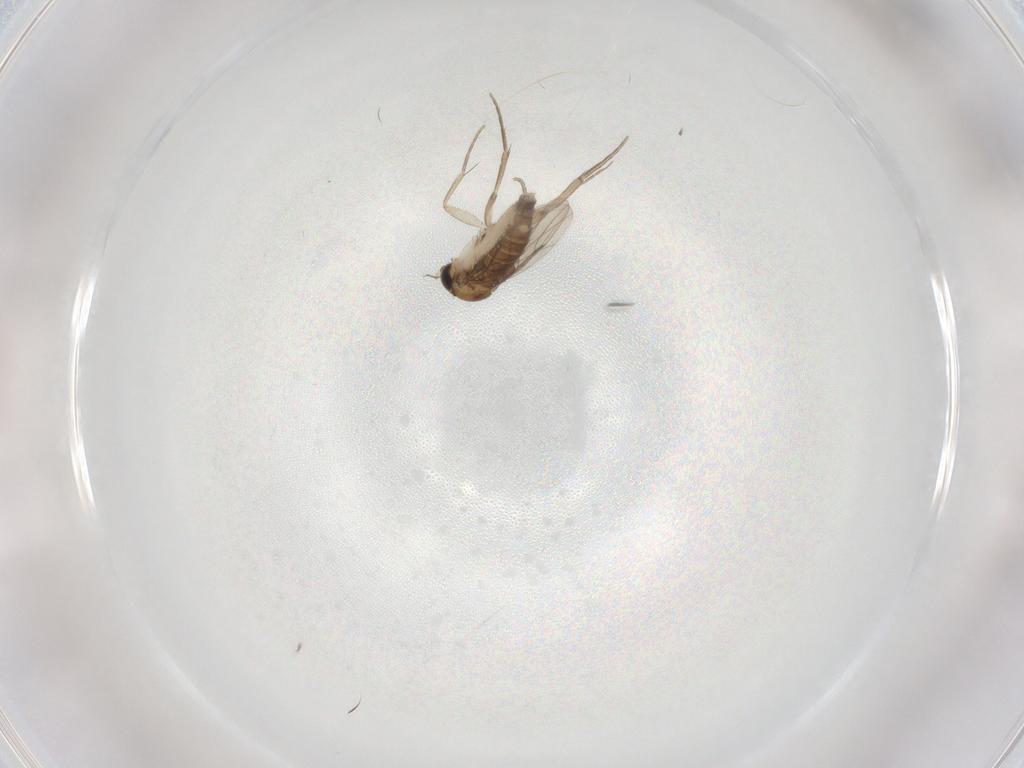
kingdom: Animalia
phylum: Arthropoda
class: Insecta
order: Diptera
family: Phoridae
